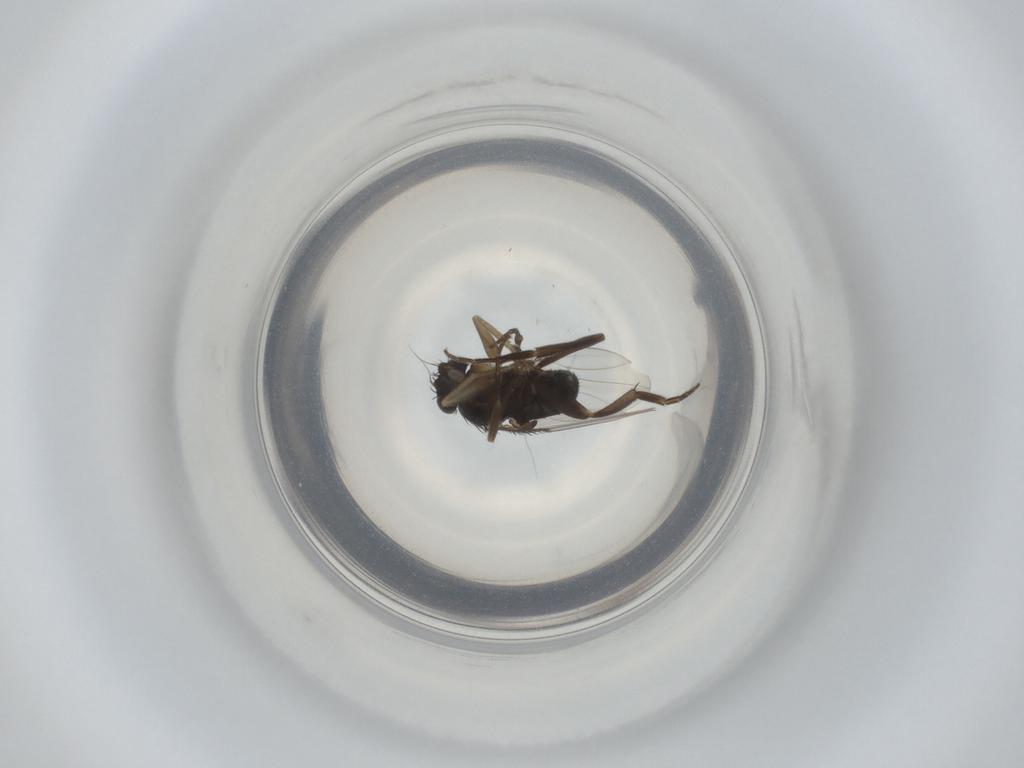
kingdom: Animalia
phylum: Arthropoda
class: Insecta
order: Diptera
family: Phoridae
